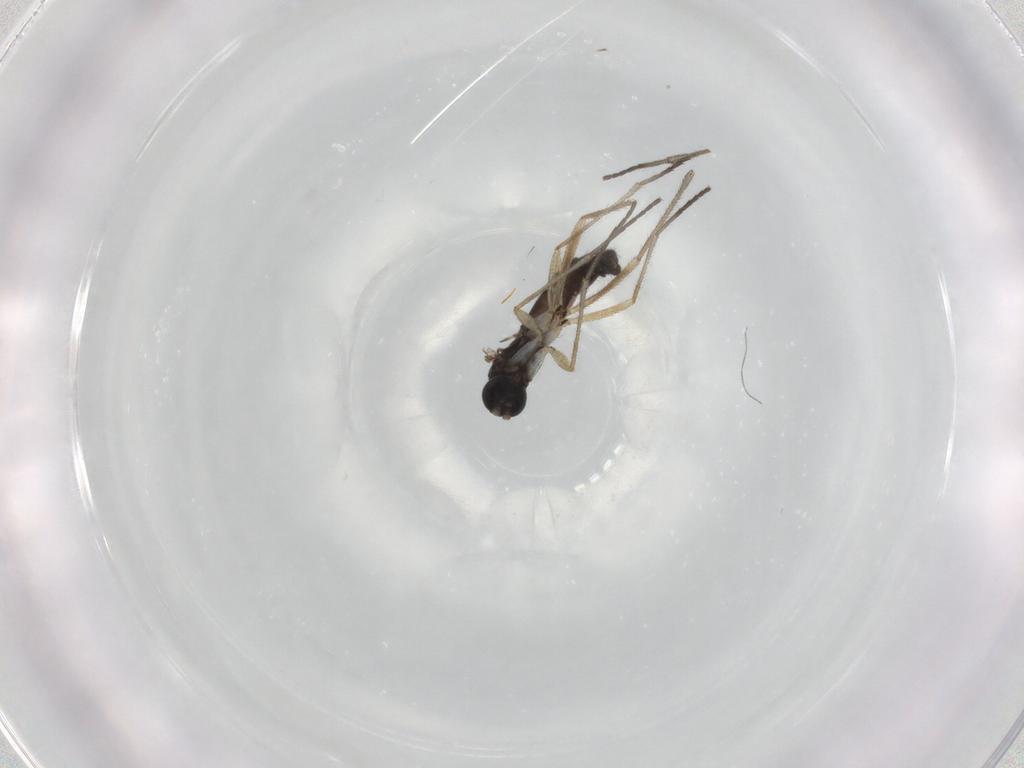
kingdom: Animalia
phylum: Arthropoda
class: Insecta
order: Diptera
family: Sciaridae
